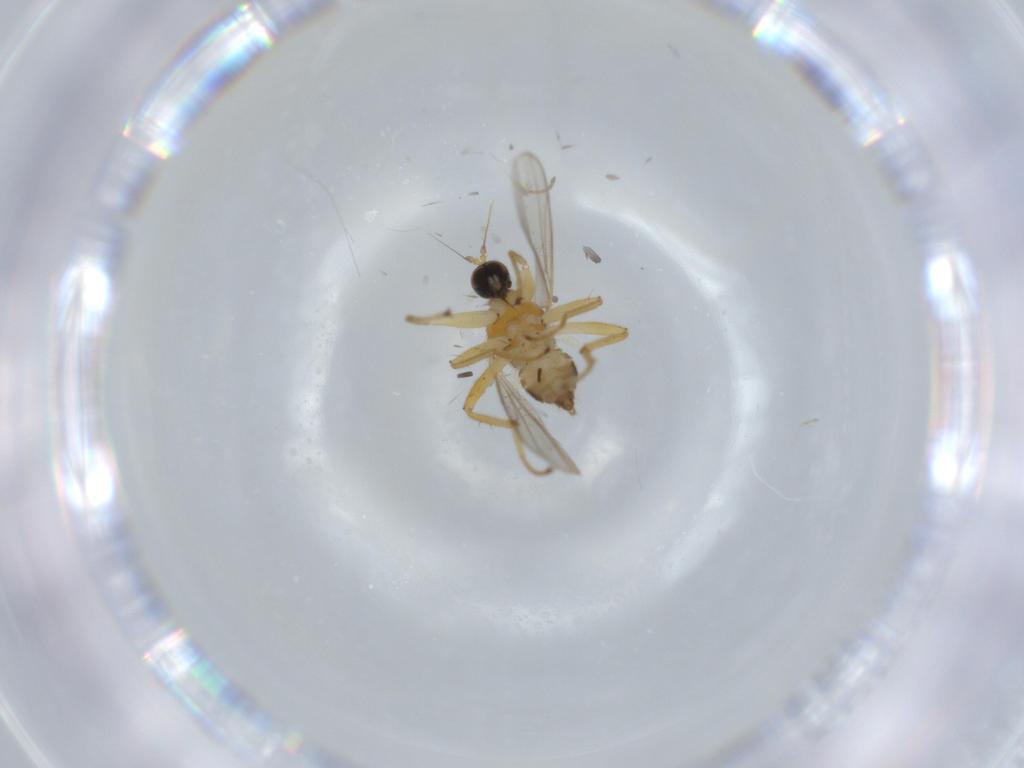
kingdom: Animalia
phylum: Arthropoda
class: Insecta
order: Diptera
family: Hybotidae
